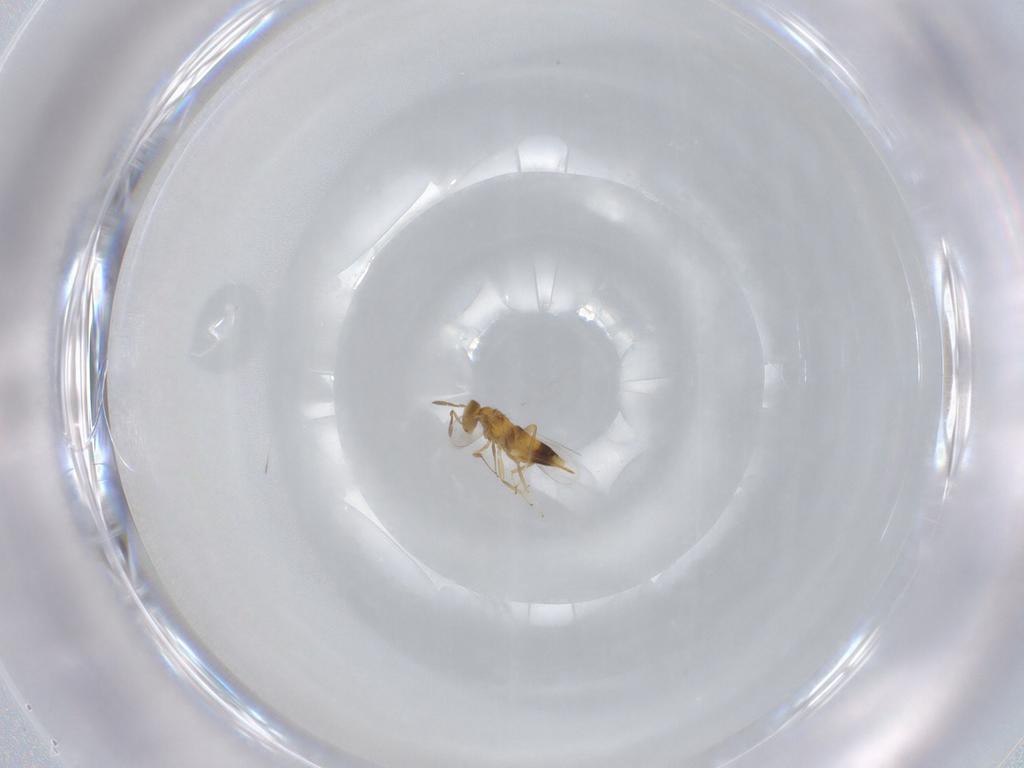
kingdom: Animalia
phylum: Arthropoda
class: Insecta
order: Hymenoptera
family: Aphelinidae
